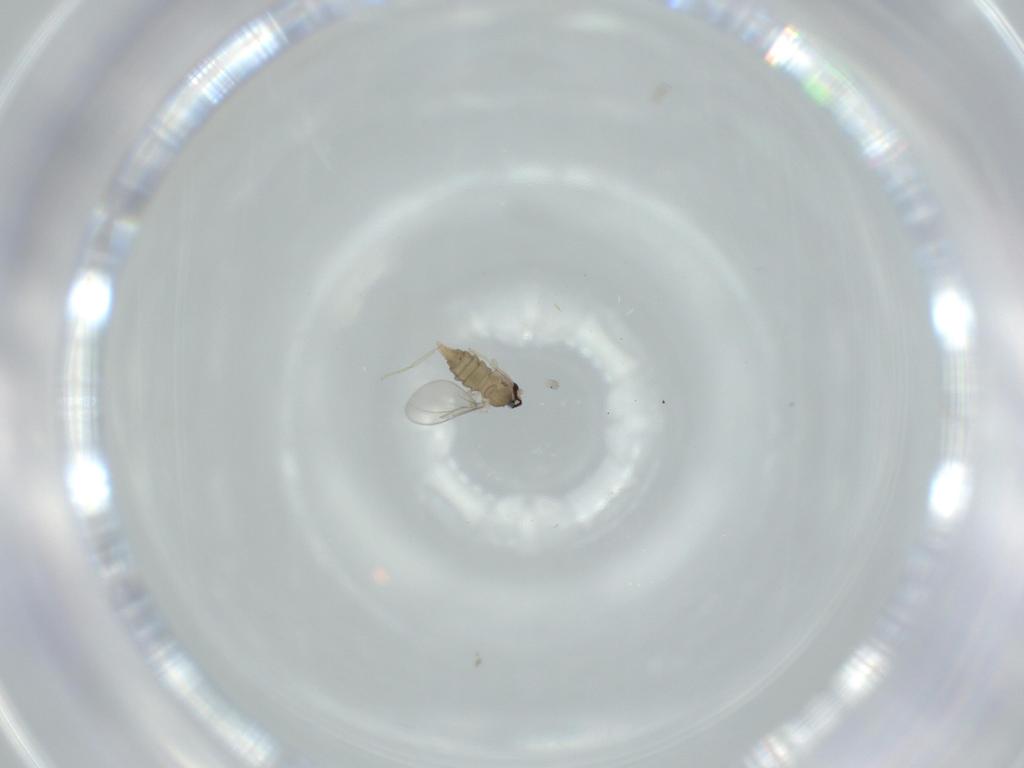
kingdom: Animalia
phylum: Arthropoda
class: Insecta
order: Diptera
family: Cecidomyiidae
